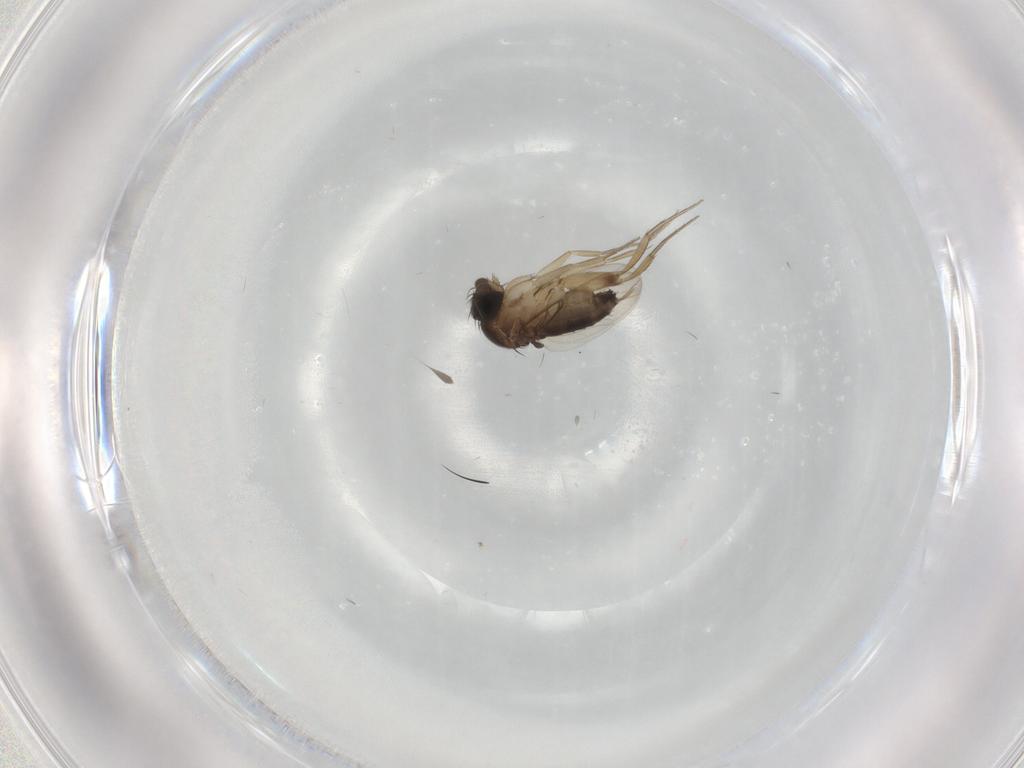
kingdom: Animalia
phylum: Arthropoda
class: Insecta
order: Diptera
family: Phoridae
